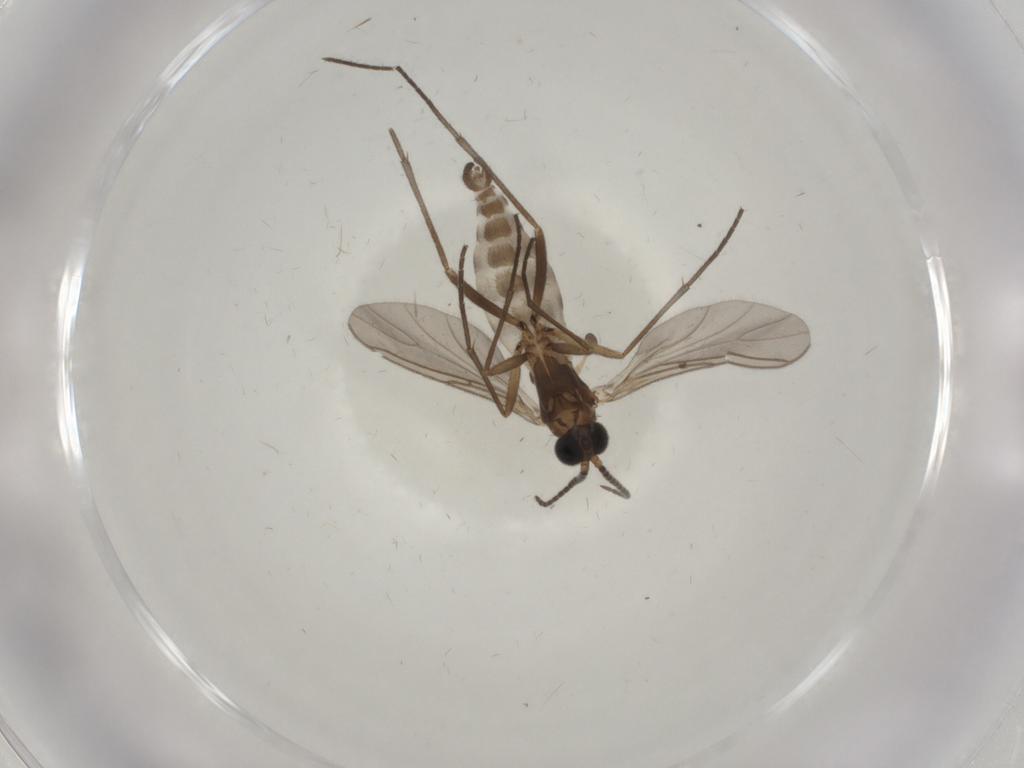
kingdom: Animalia
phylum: Arthropoda
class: Insecta
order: Diptera
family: Sciaridae
